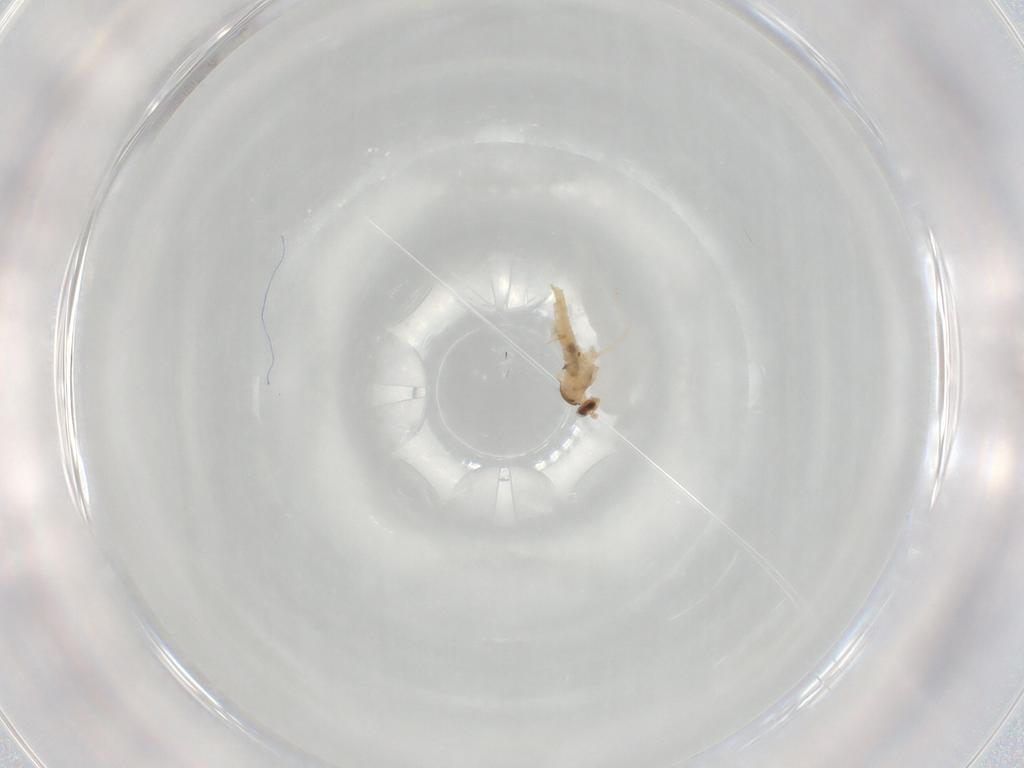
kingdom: Animalia
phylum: Arthropoda
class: Insecta
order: Diptera
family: Cecidomyiidae
